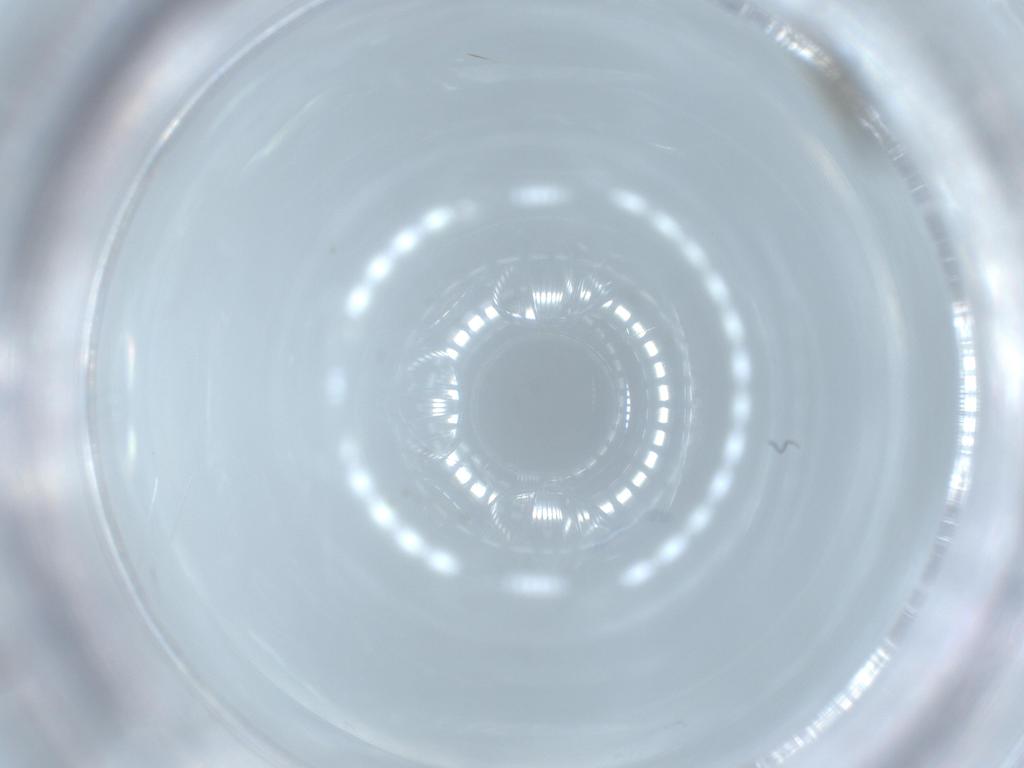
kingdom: Animalia
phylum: Arthropoda
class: Insecta
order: Thysanoptera
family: Thripidae
